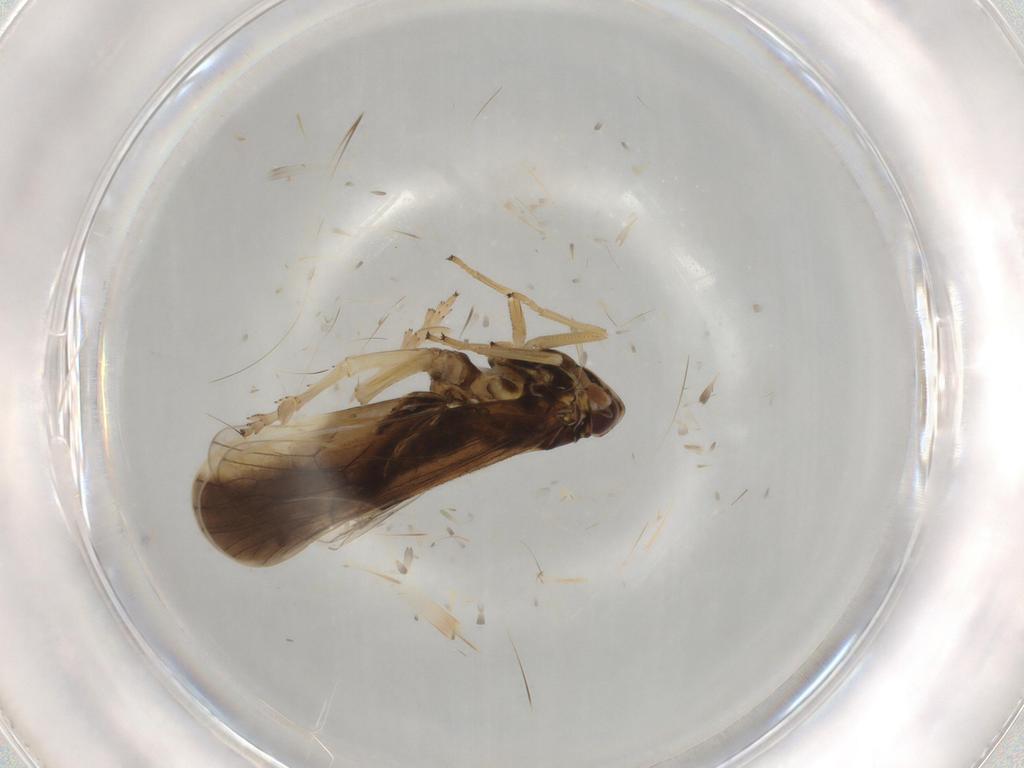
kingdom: Animalia
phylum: Arthropoda
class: Insecta
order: Hemiptera
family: Delphacidae
